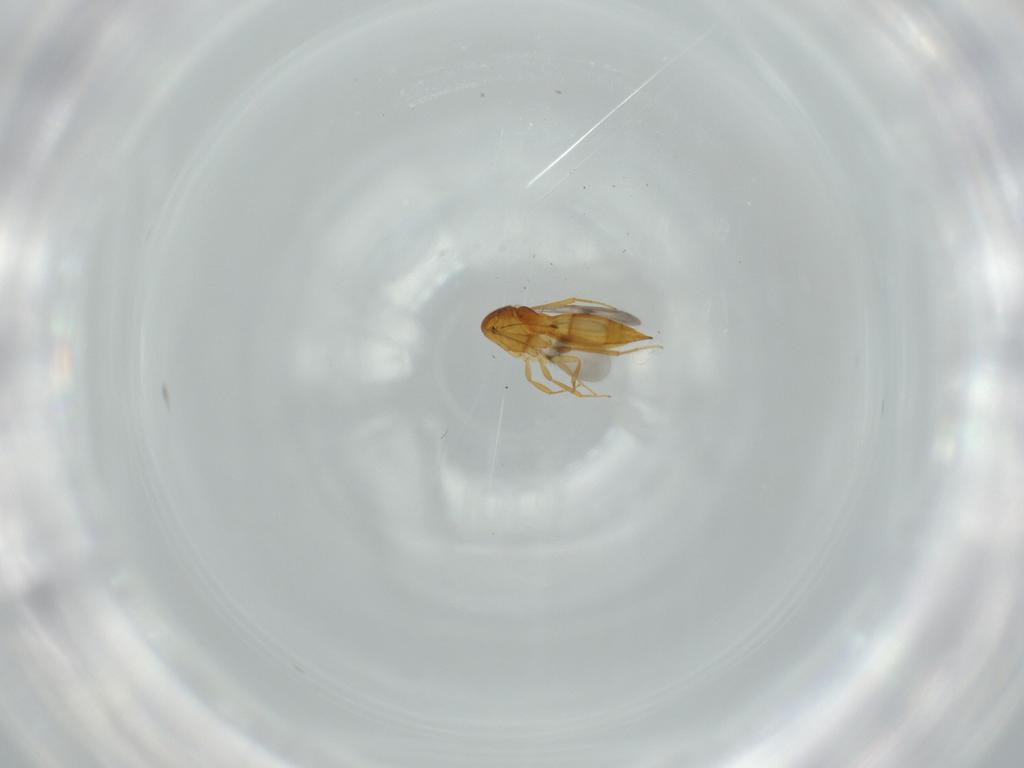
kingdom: Animalia
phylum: Arthropoda
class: Insecta
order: Hymenoptera
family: Scelionidae
